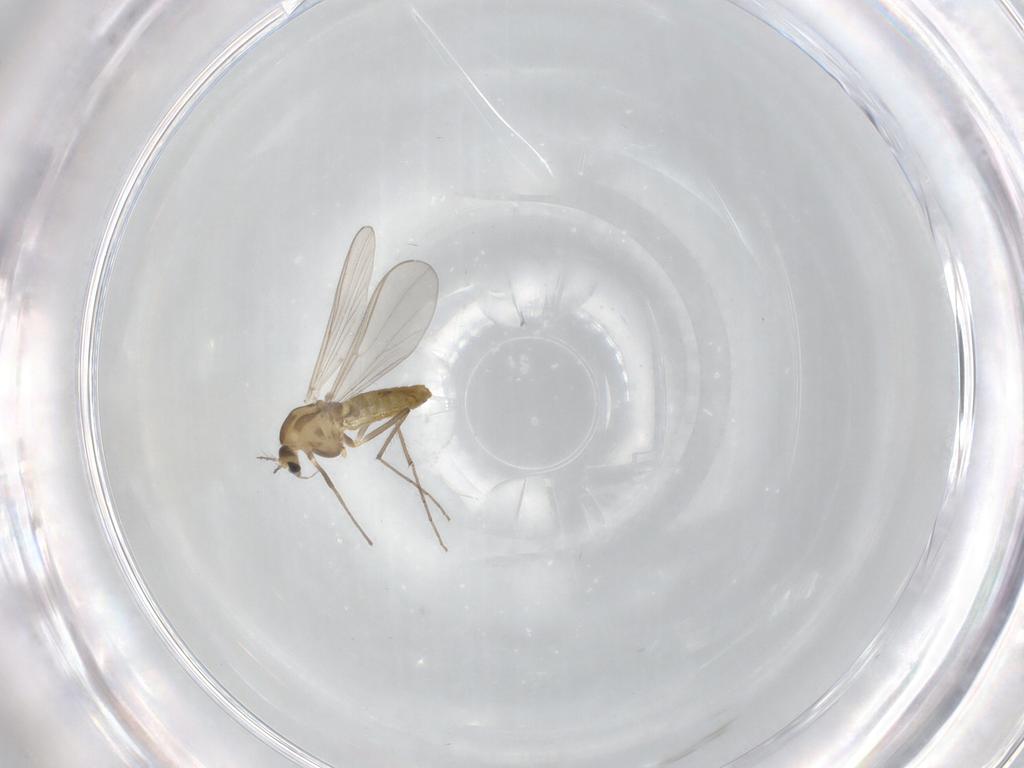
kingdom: Animalia
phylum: Arthropoda
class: Insecta
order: Diptera
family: Chironomidae
